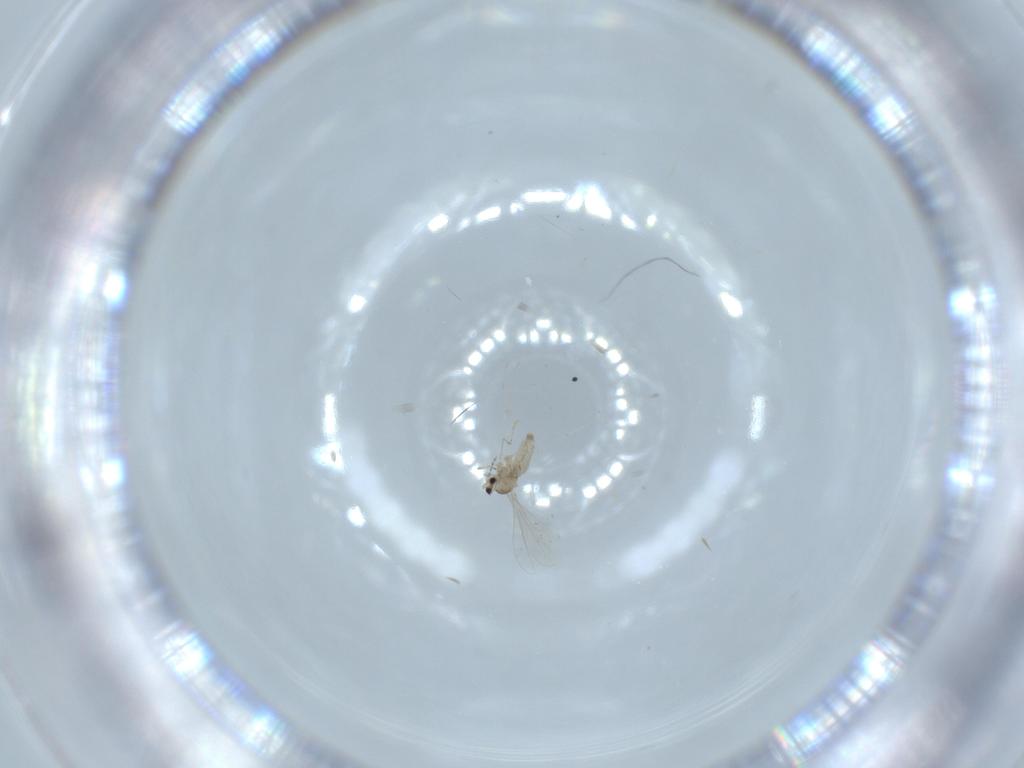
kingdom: Animalia
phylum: Arthropoda
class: Insecta
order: Diptera
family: Cecidomyiidae
